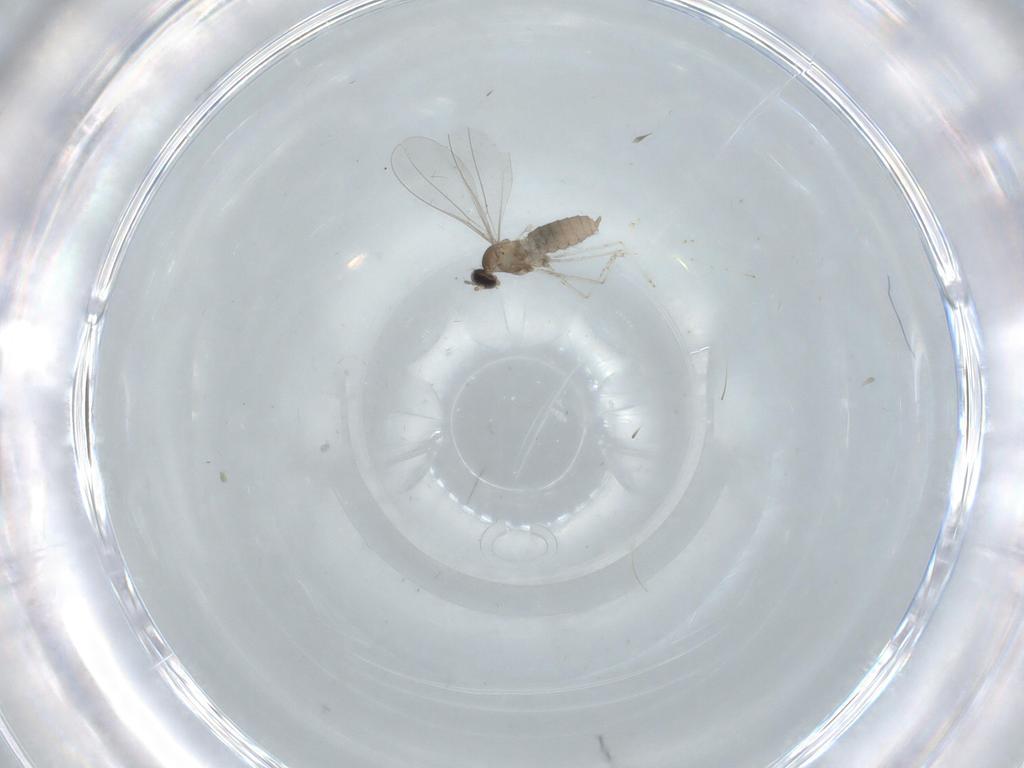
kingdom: Animalia
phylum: Arthropoda
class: Insecta
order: Diptera
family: Cecidomyiidae
